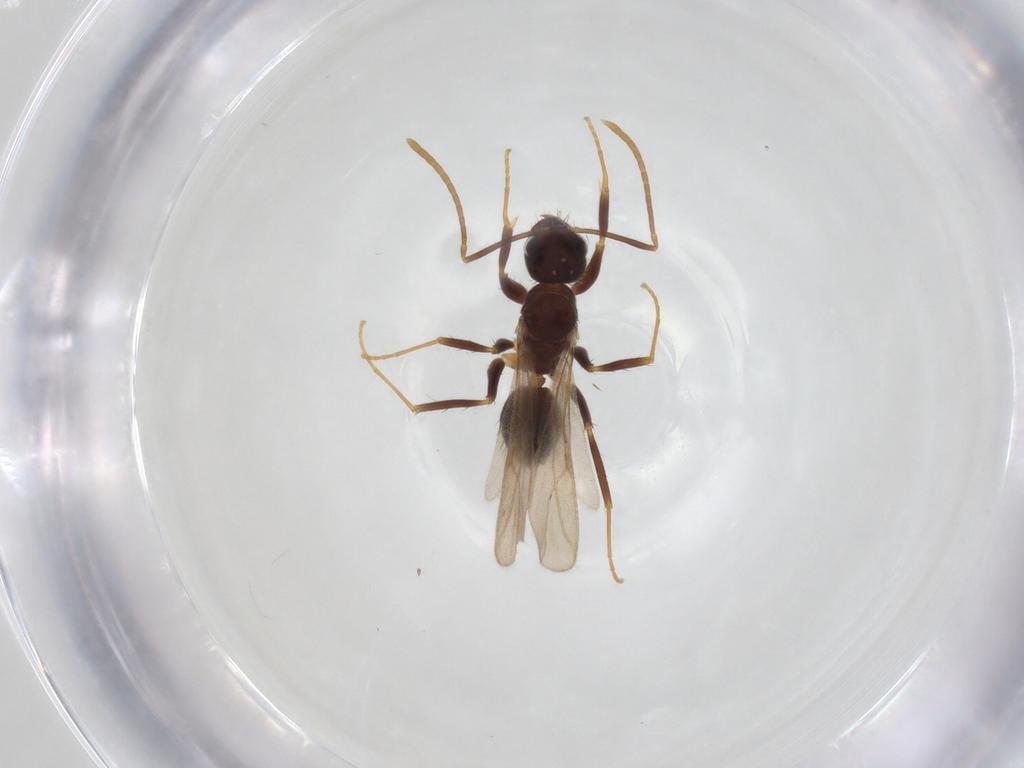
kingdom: Animalia
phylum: Arthropoda
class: Insecta
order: Hymenoptera
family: Formicidae
